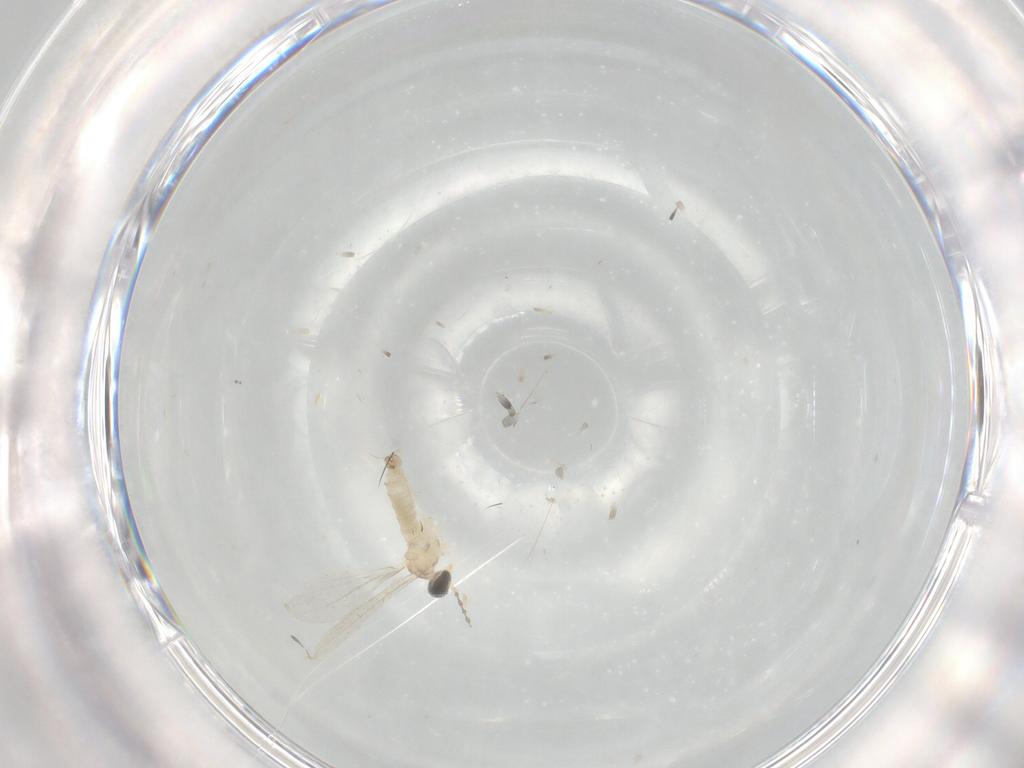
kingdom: Animalia
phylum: Arthropoda
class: Insecta
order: Diptera
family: Cecidomyiidae
